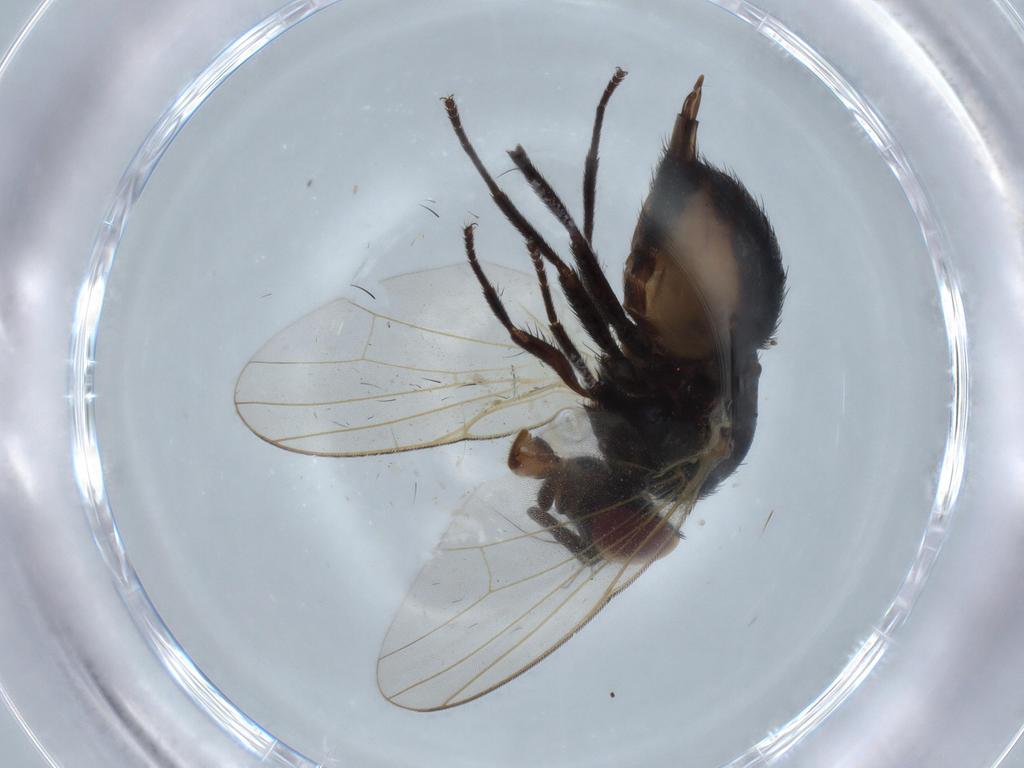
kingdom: Animalia
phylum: Arthropoda
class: Insecta
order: Diptera
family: Lonchaeidae
